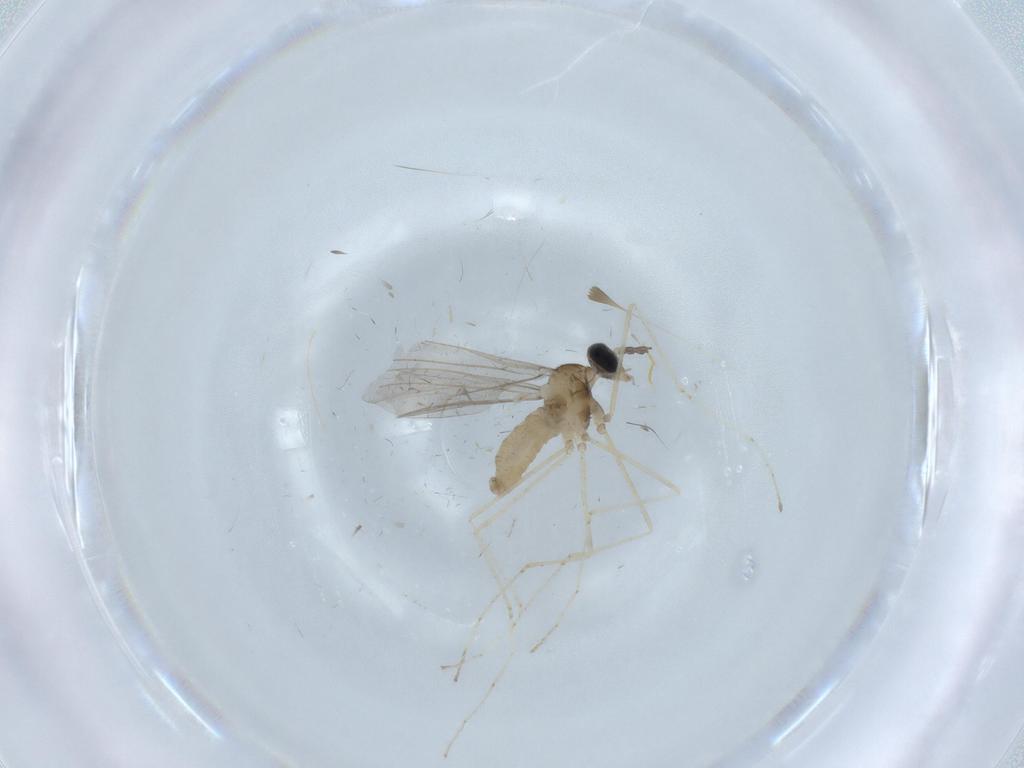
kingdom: Animalia
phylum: Arthropoda
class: Insecta
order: Diptera
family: Cecidomyiidae
